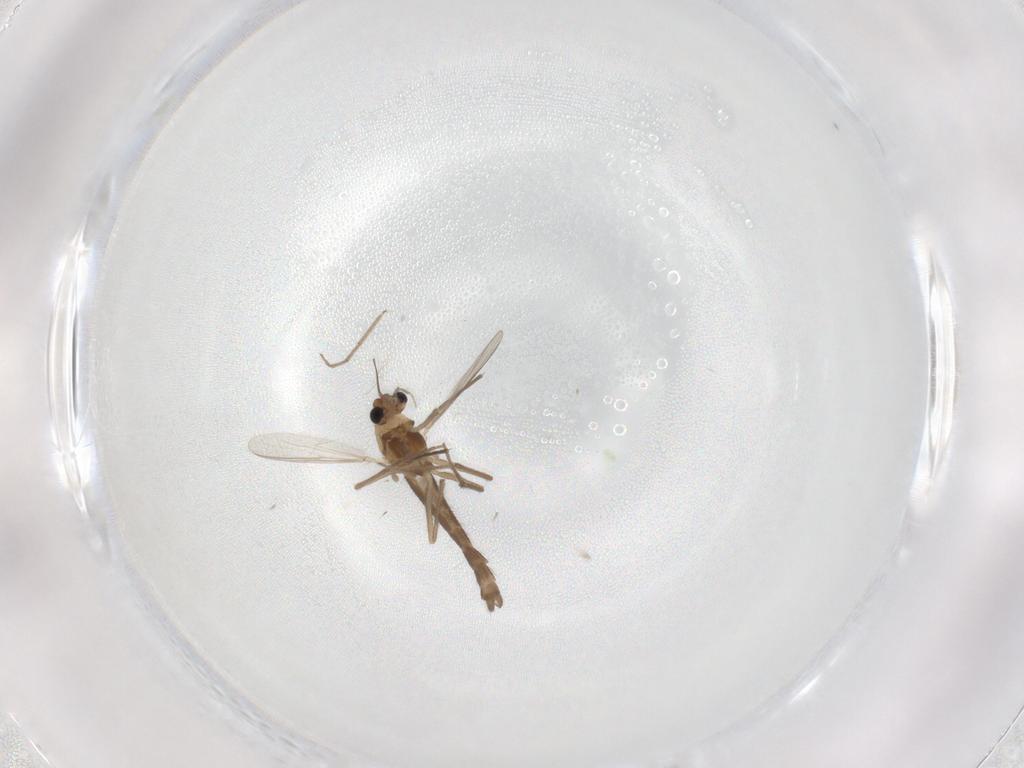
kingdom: Animalia
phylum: Arthropoda
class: Insecta
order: Diptera
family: Chironomidae
